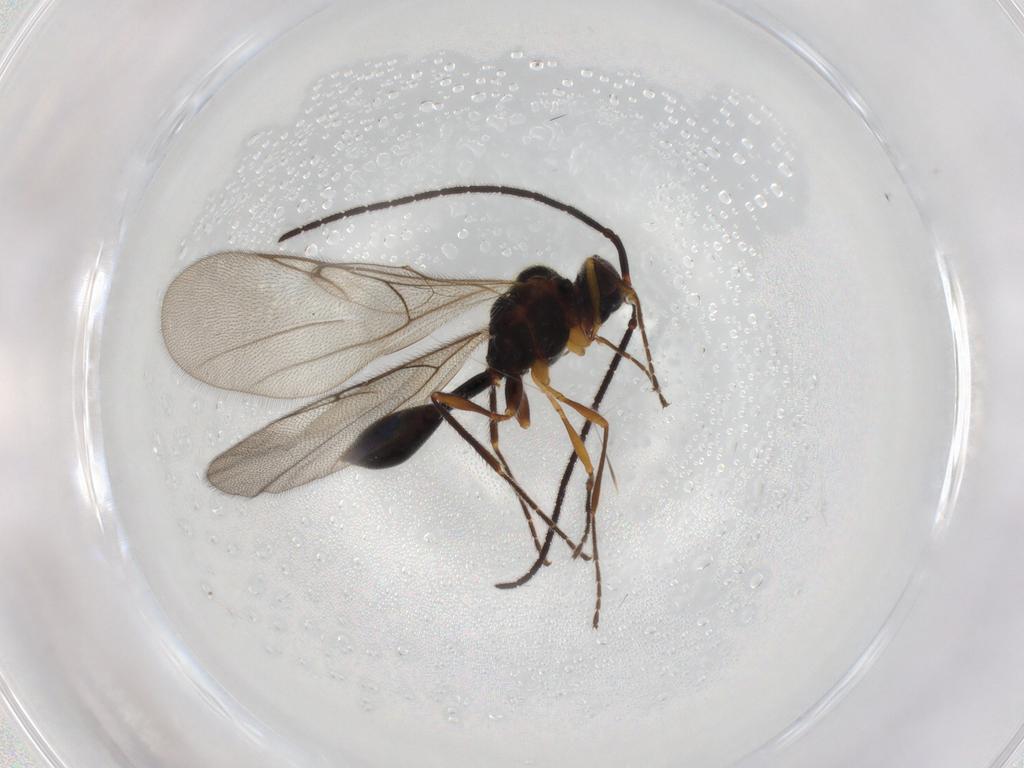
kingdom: Animalia
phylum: Arthropoda
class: Insecta
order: Hymenoptera
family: Diapriidae
